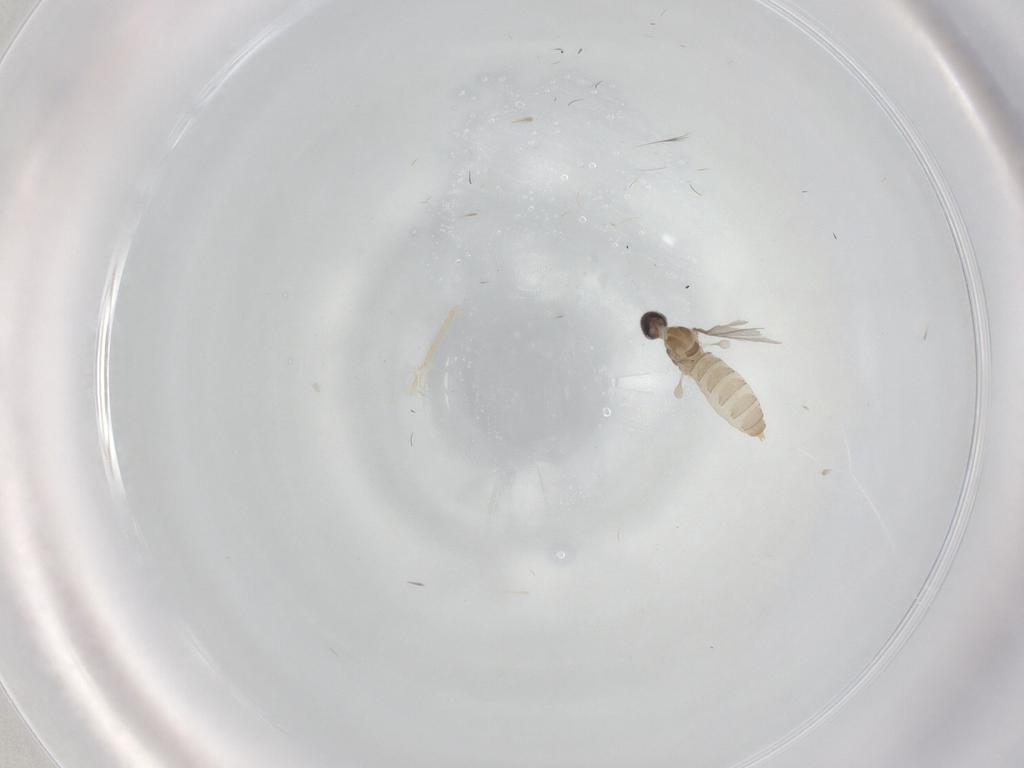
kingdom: Animalia
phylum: Arthropoda
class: Insecta
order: Diptera
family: Cecidomyiidae
